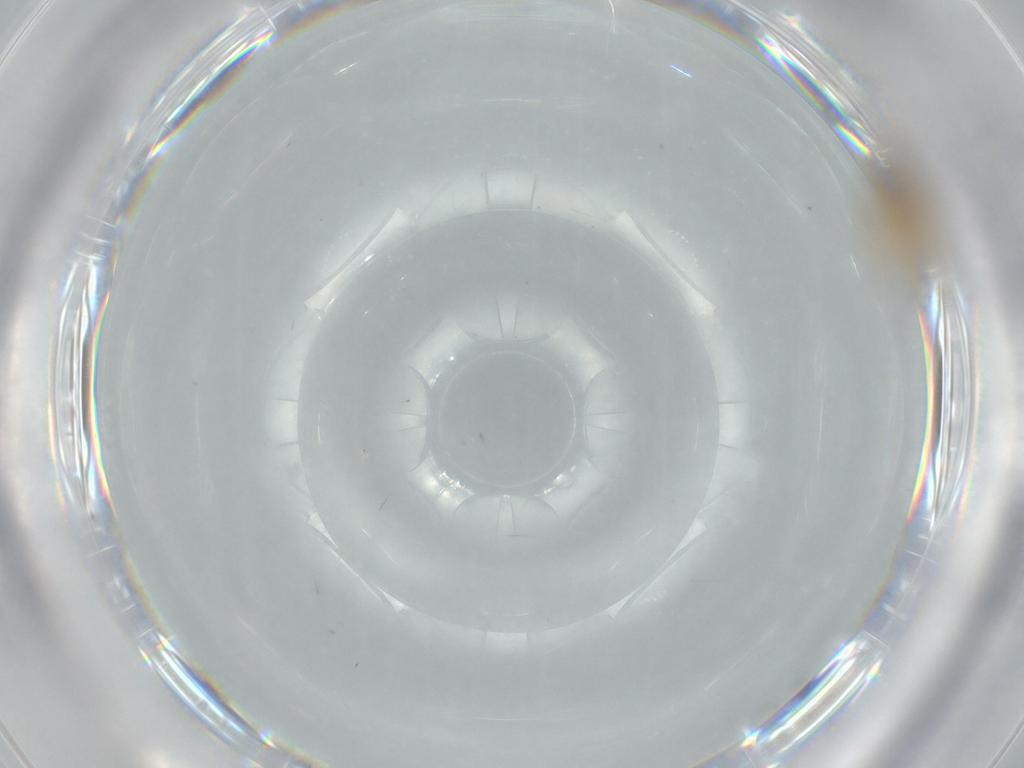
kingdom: Animalia
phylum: Arthropoda
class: Insecta
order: Psocodea
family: Lachesillidae
